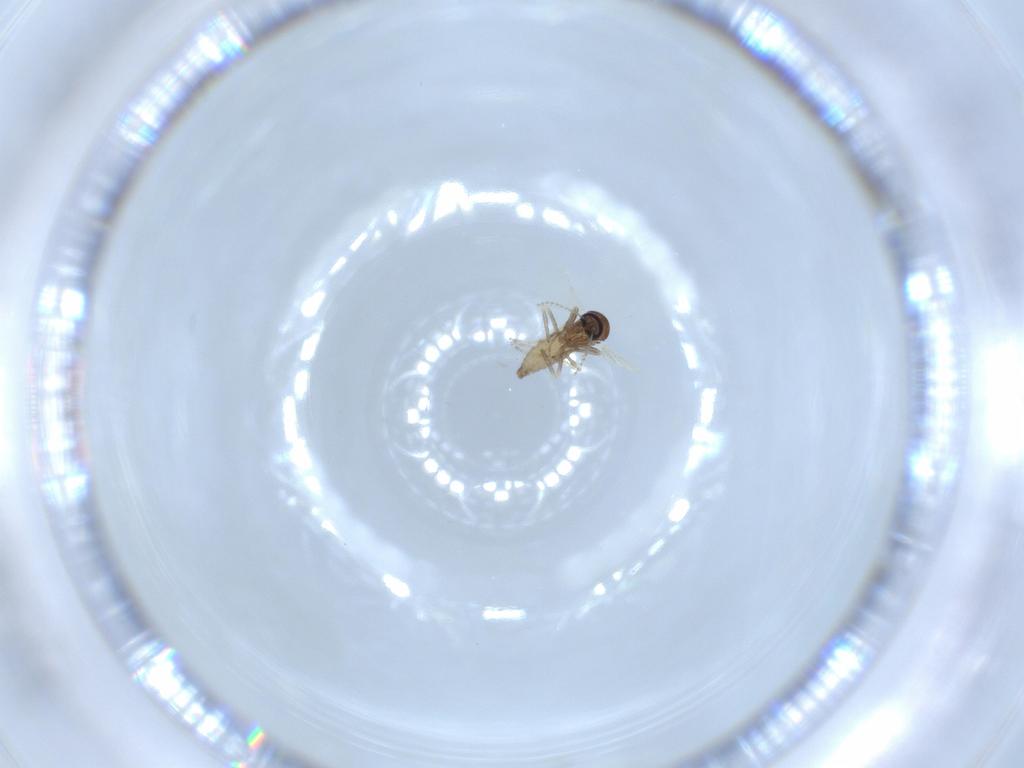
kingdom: Animalia
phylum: Arthropoda
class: Insecta
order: Diptera
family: Ceratopogonidae
